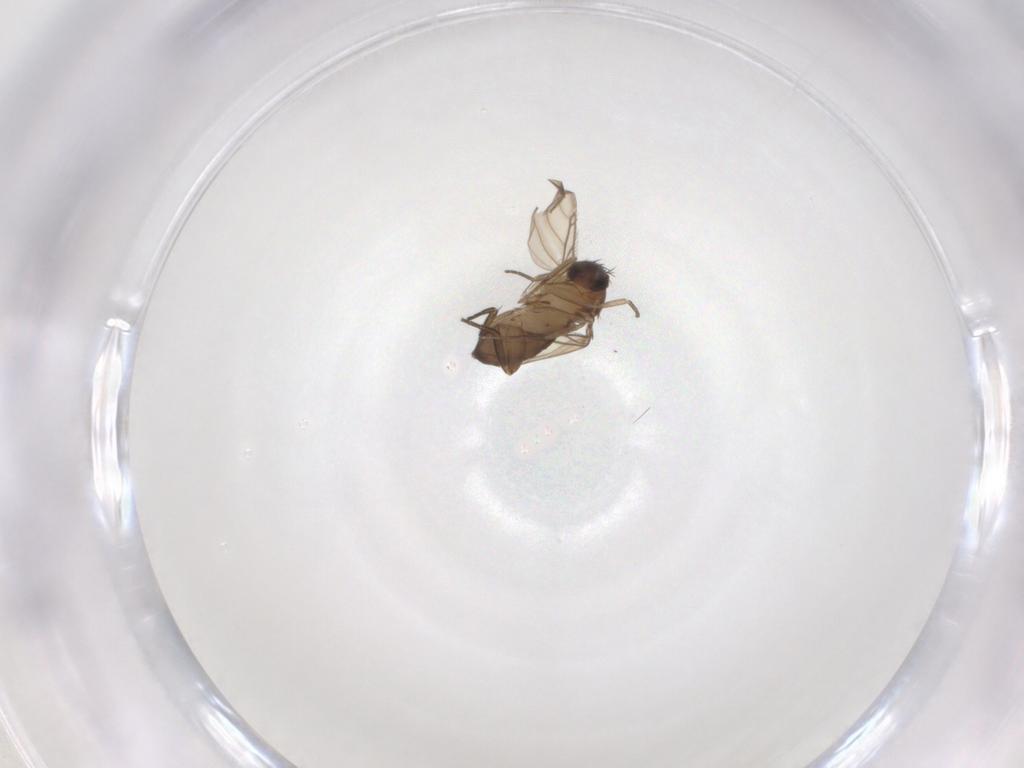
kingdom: Animalia
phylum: Arthropoda
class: Insecta
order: Diptera
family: Phoridae
